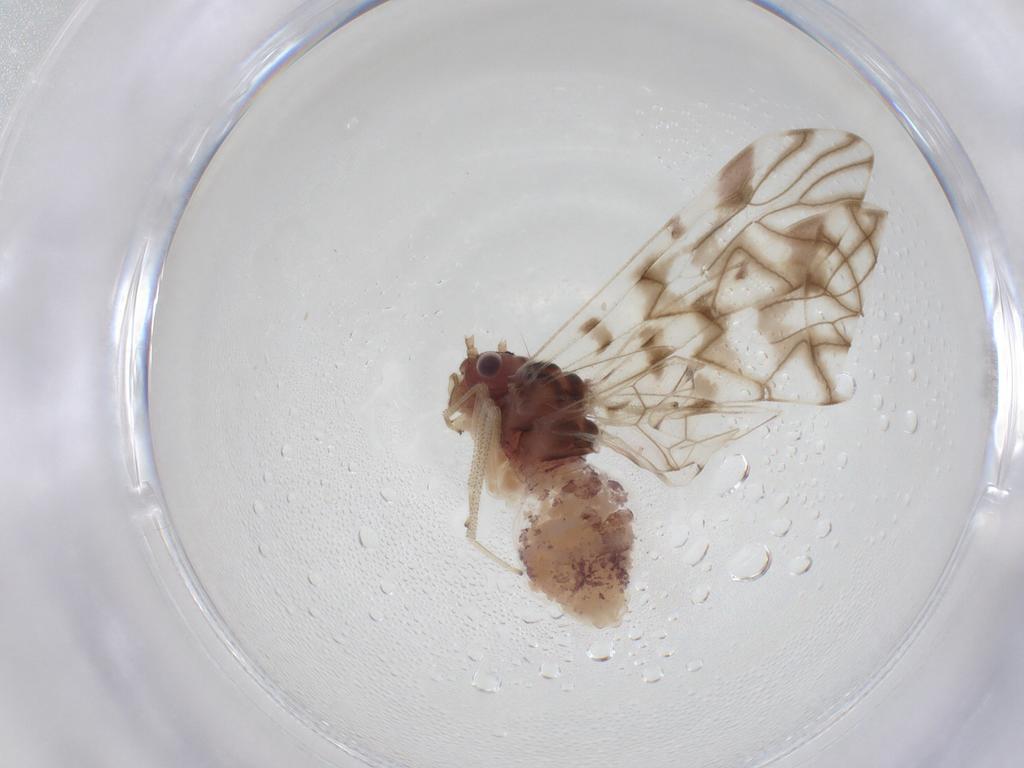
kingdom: Animalia
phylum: Arthropoda
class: Insecta
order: Psocodea
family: Amphipsocidae
